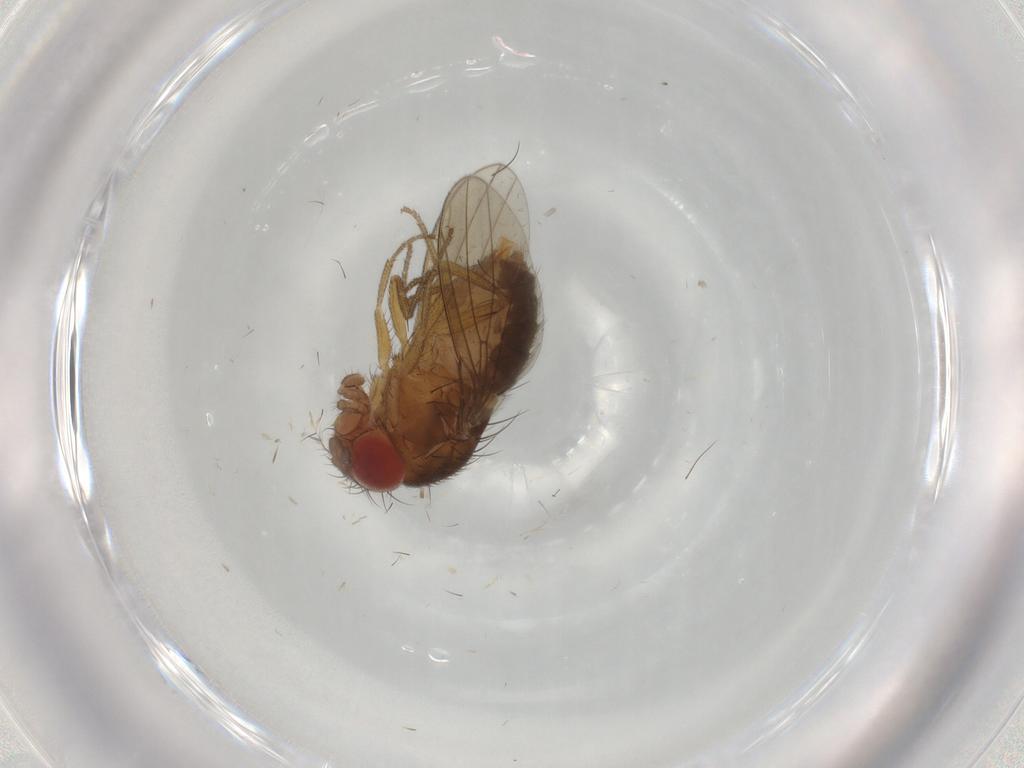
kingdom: Animalia
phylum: Arthropoda
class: Insecta
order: Diptera
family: Drosophilidae
